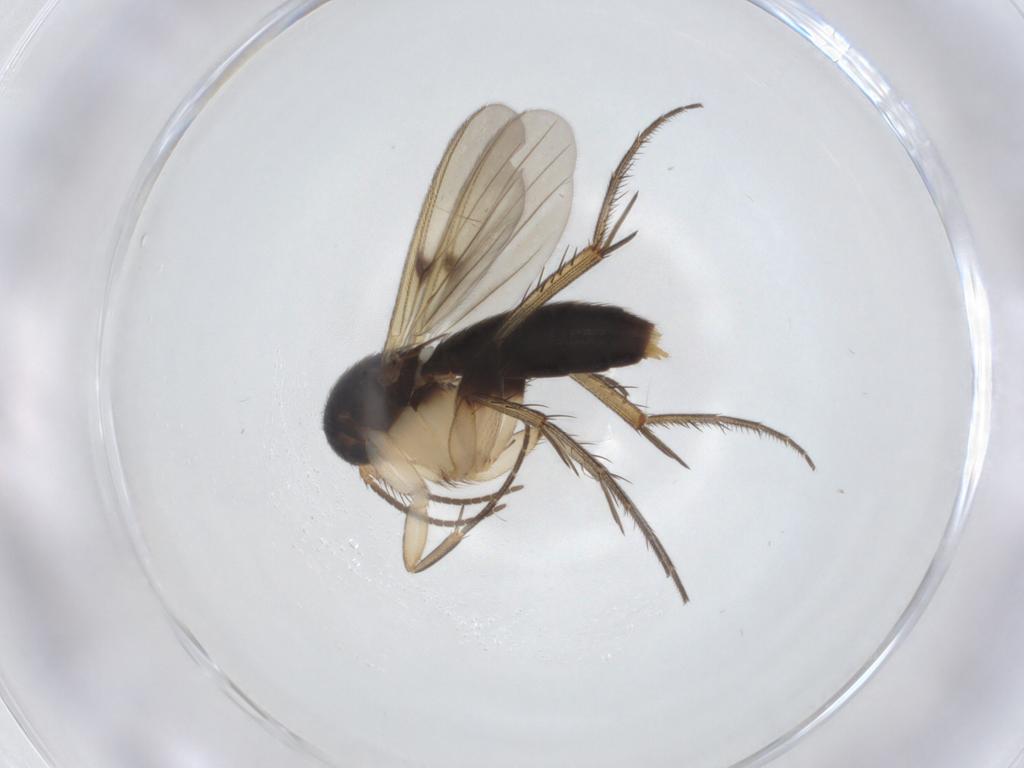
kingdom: Animalia
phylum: Arthropoda
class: Insecta
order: Diptera
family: Mycetophilidae
